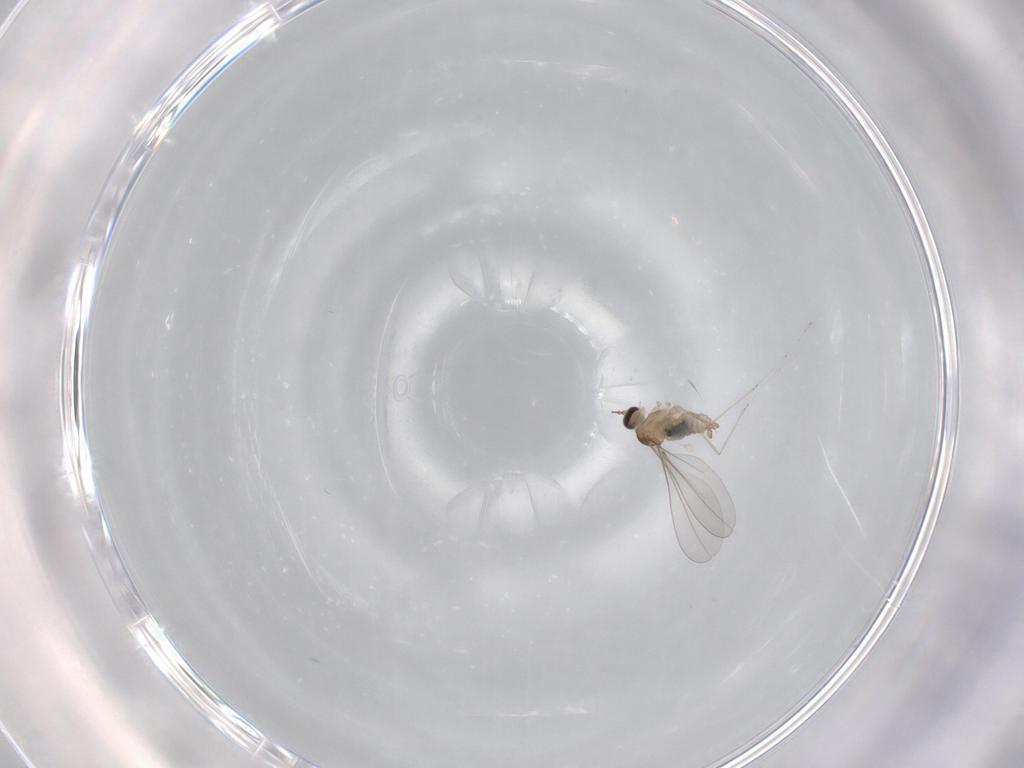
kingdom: Animalia
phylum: Arthropoda
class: Insecta
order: Diptera
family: Cecidomyiidae
